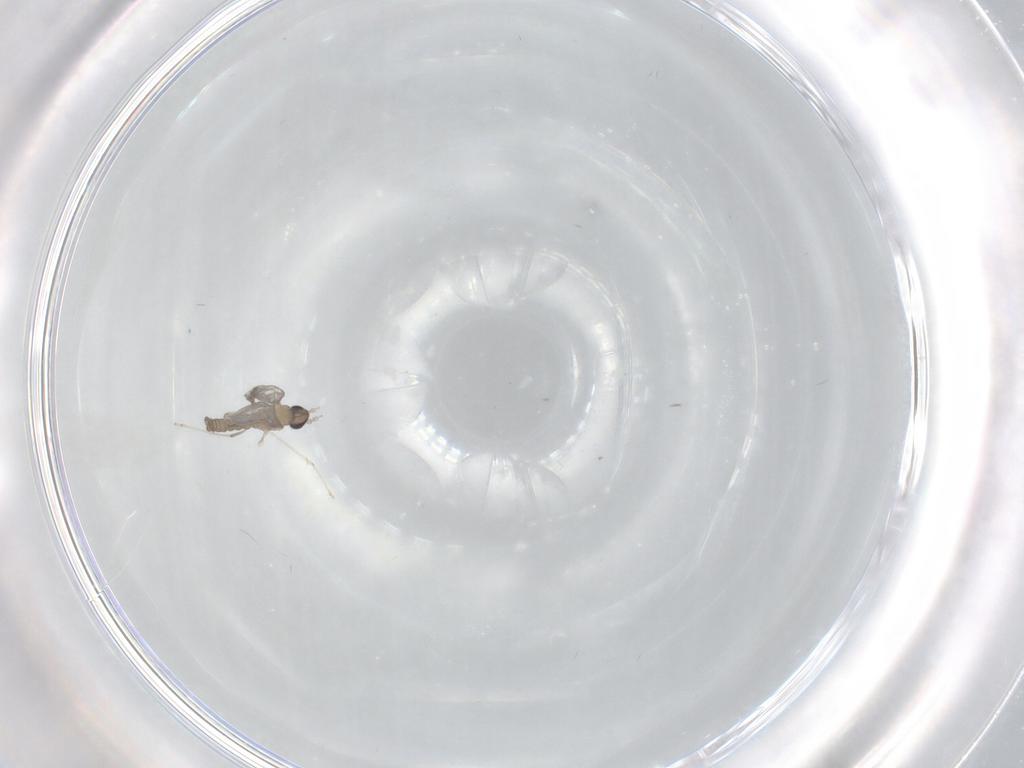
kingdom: Animalia
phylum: Arthropoda
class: Insecta
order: Diptera
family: Cecidomyiidae
